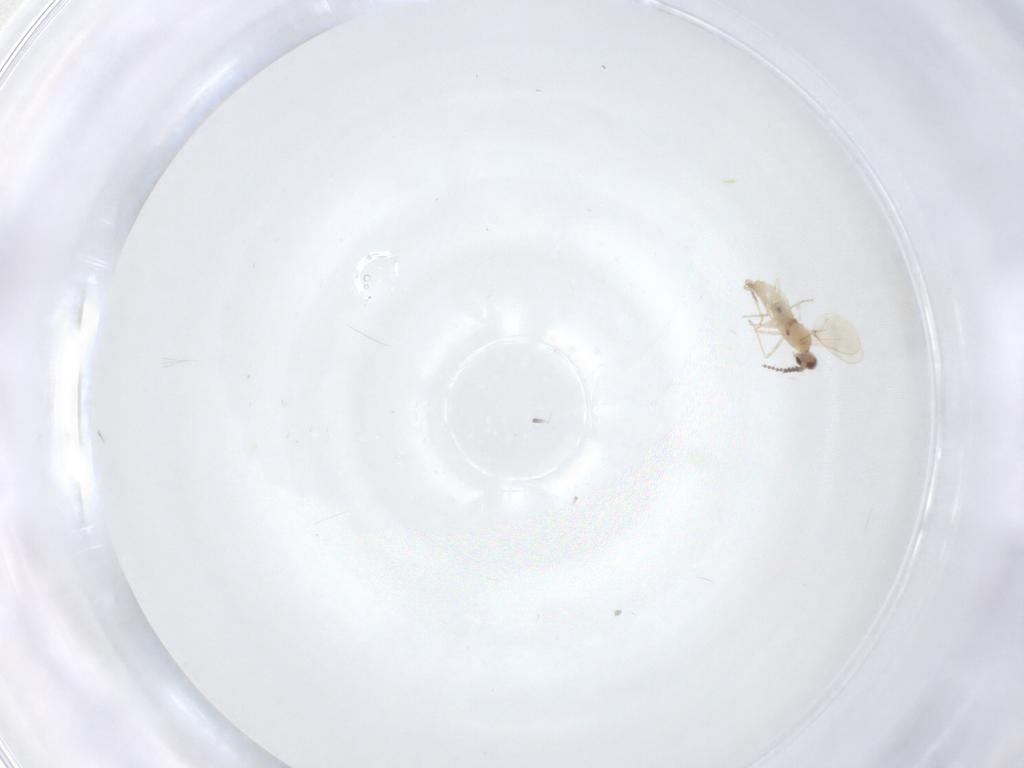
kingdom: Animalia
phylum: Arthropoda
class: Insecta
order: Diptera
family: Cecidomyiidae
